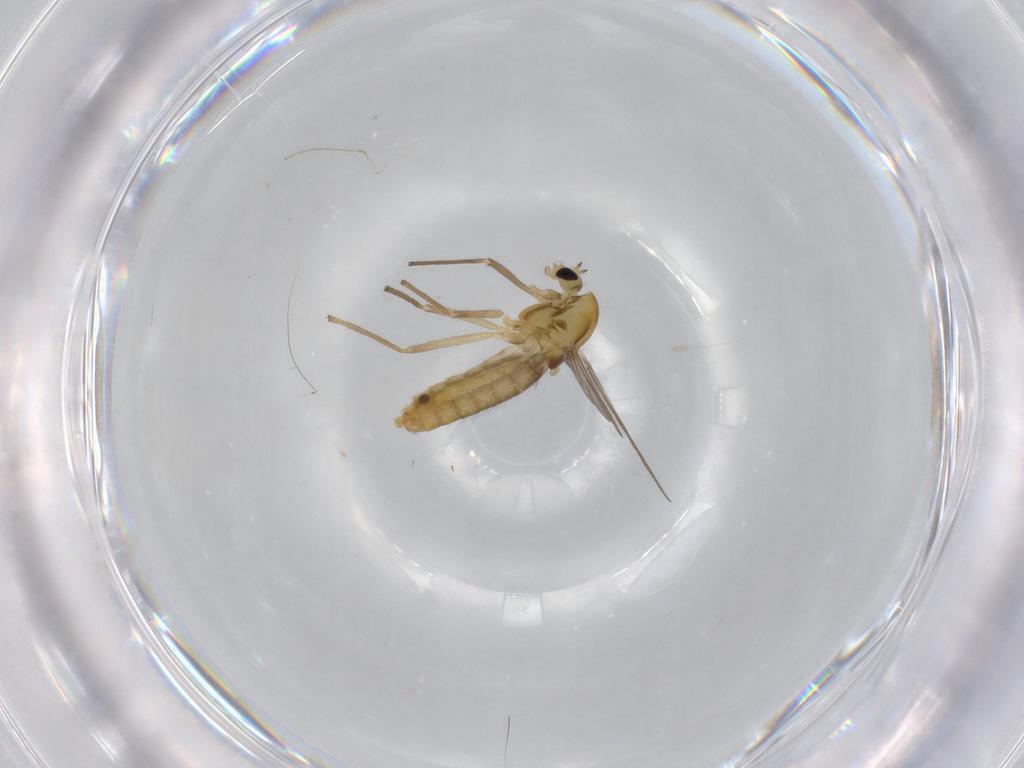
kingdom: Animalia
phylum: Arthropoda
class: Insecta
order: Diptera
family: Chironomidae
